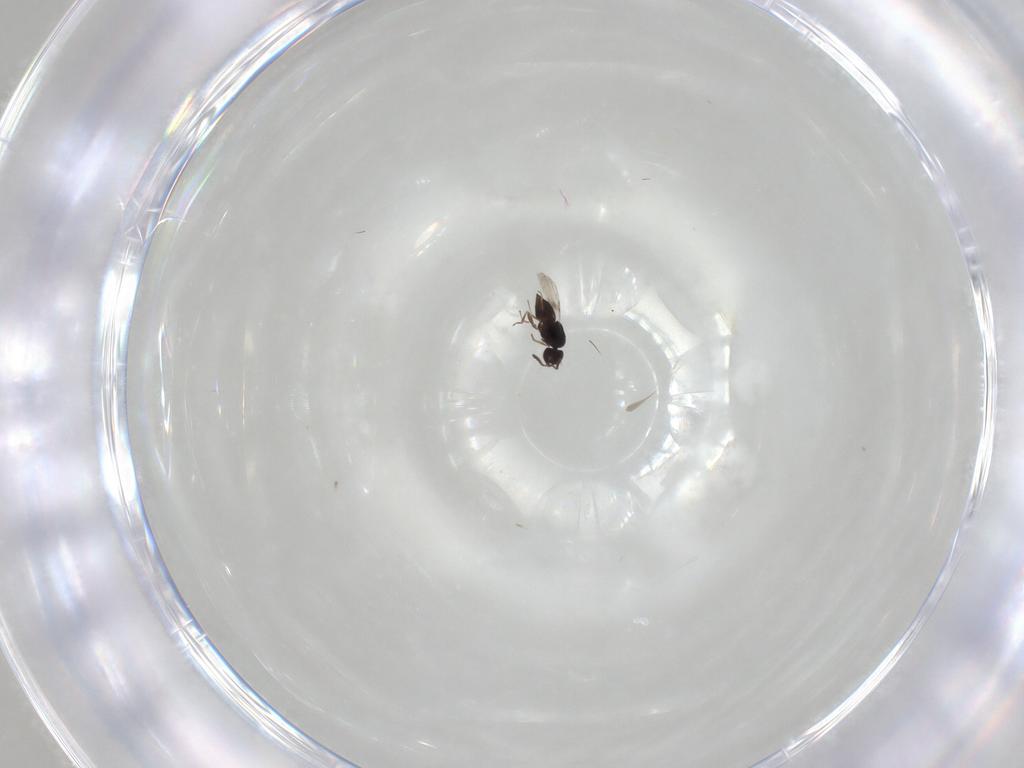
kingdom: Animalia
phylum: Arthropoda
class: Insecta
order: Hymenoptera
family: Ceraphronidae
